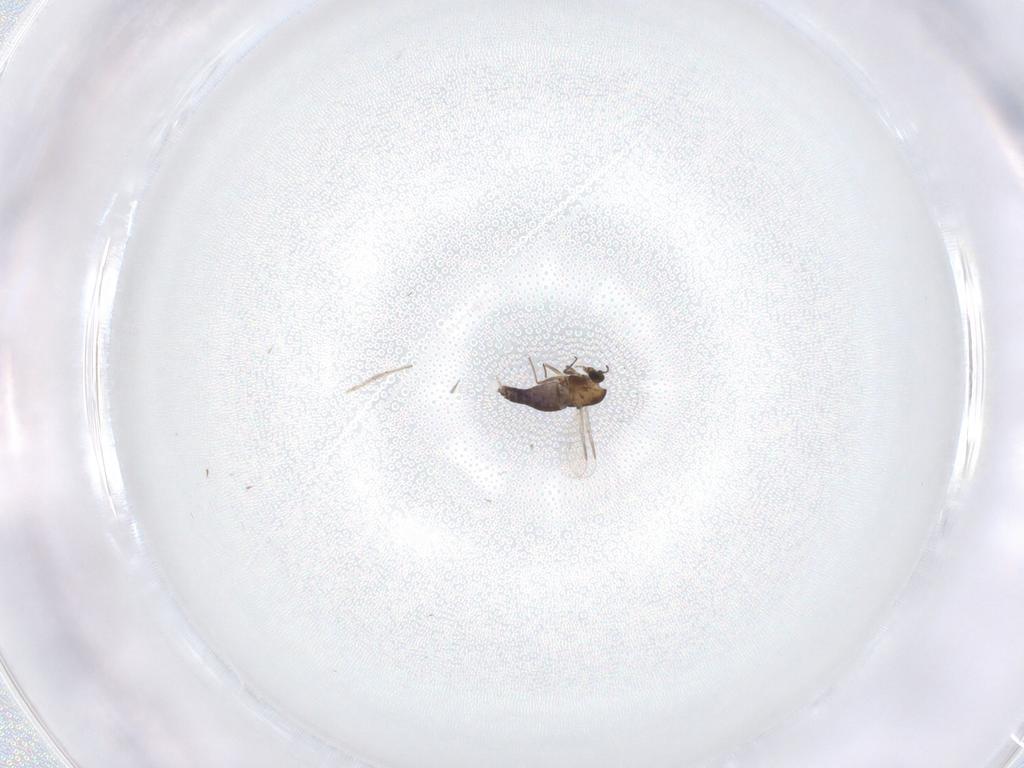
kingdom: Animalia
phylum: Arthropoda
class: Insecta
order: Diptera
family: Chironomidae
